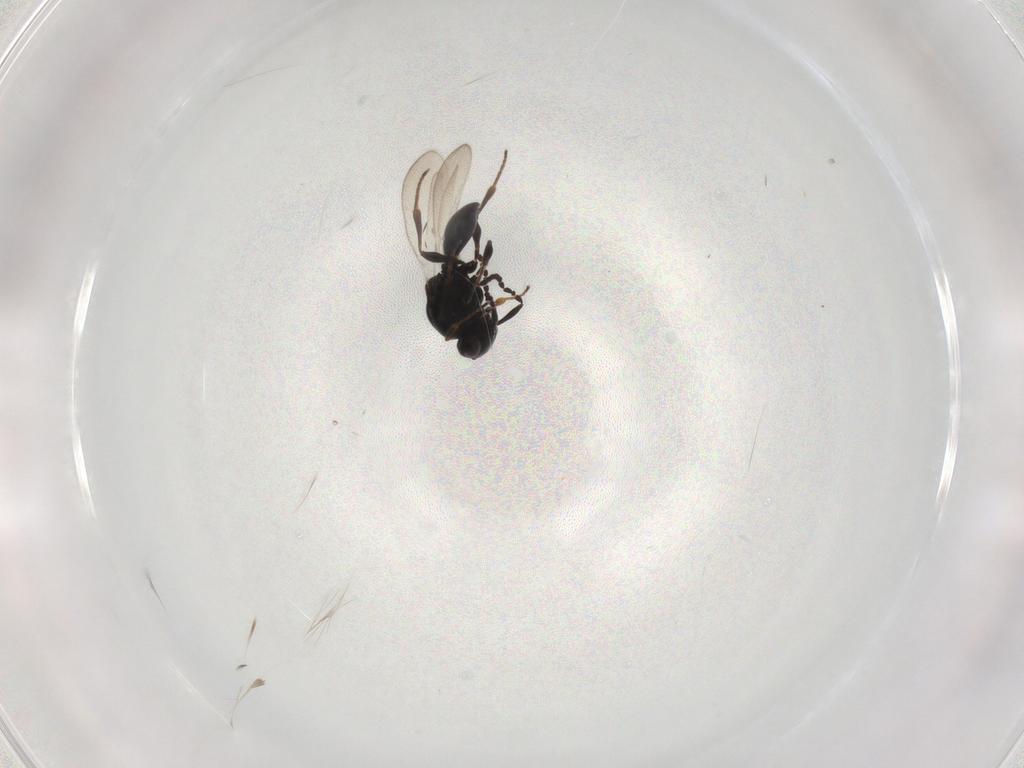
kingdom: Animalia
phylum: Arthropoda
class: Insecta
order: Hymenoptera
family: Platygastridae
